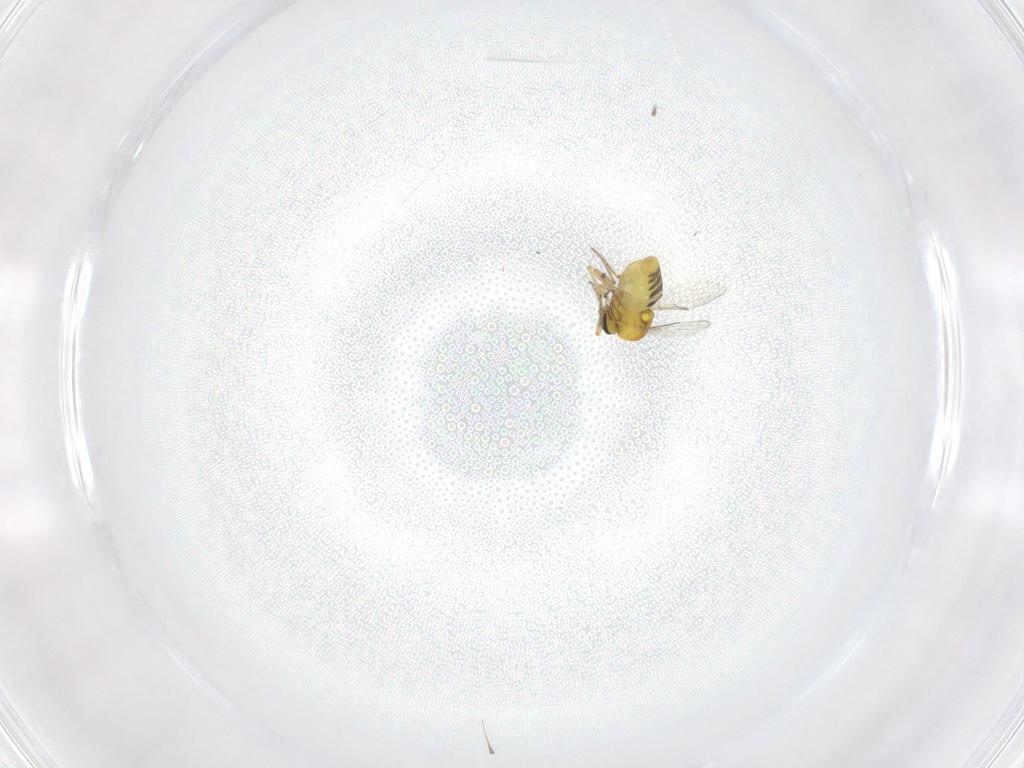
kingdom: Animalia
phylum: Arthropoda
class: Insecta
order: Diptera
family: Ceratopogonidae
